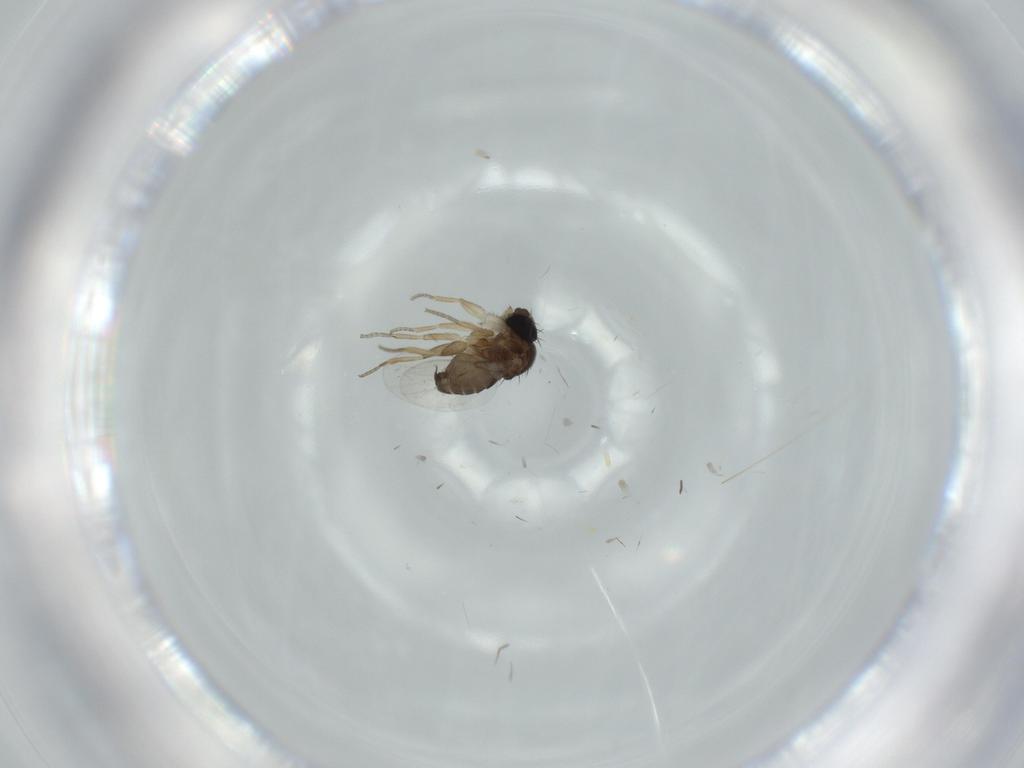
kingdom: Animalia
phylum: Arthropoda
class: Insecta
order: Diptera
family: Phoridae
